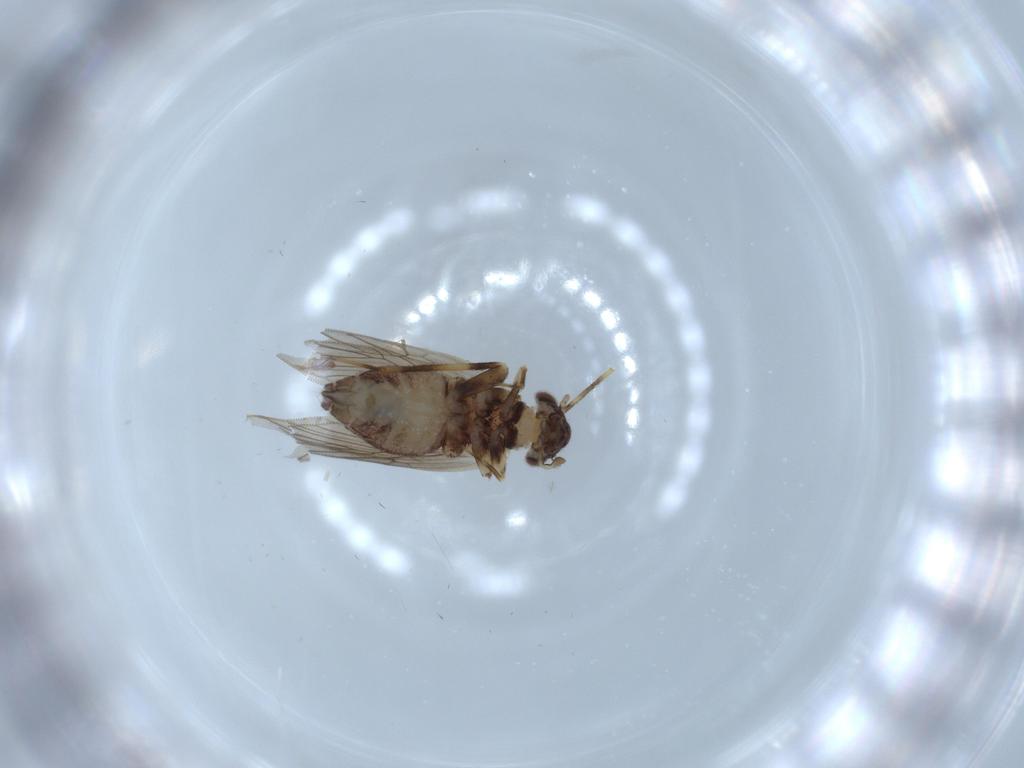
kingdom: Animalia
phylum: Arthropoda
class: Insecta
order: Psocodea
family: Lepidopsocidae
